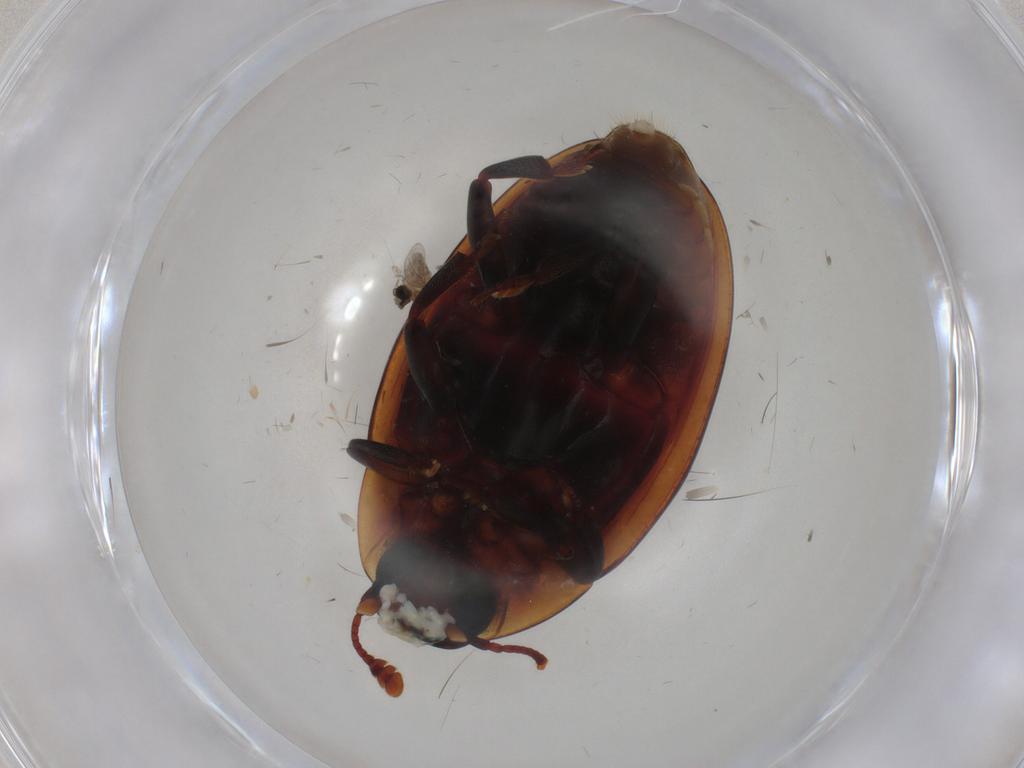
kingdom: Animalia
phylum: Arthropoda
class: Insecta
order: Coleoptera
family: Zopheridae
